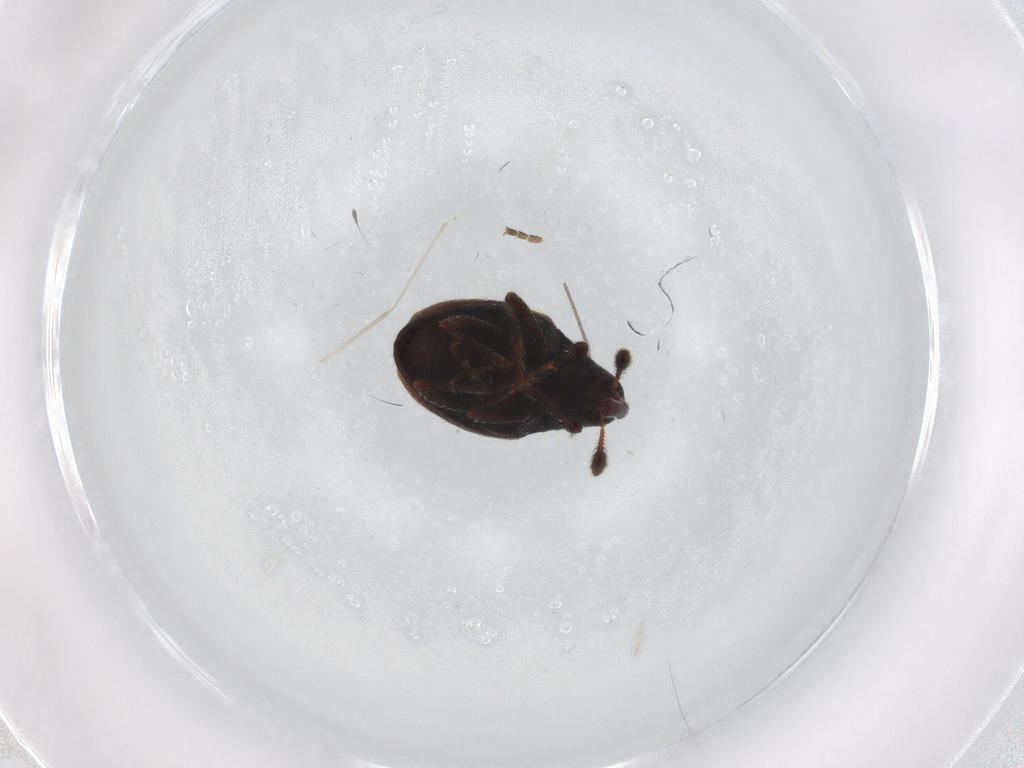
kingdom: Animalia
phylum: Arthropoda
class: Insecta
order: Coleoptera
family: Curculionidae
